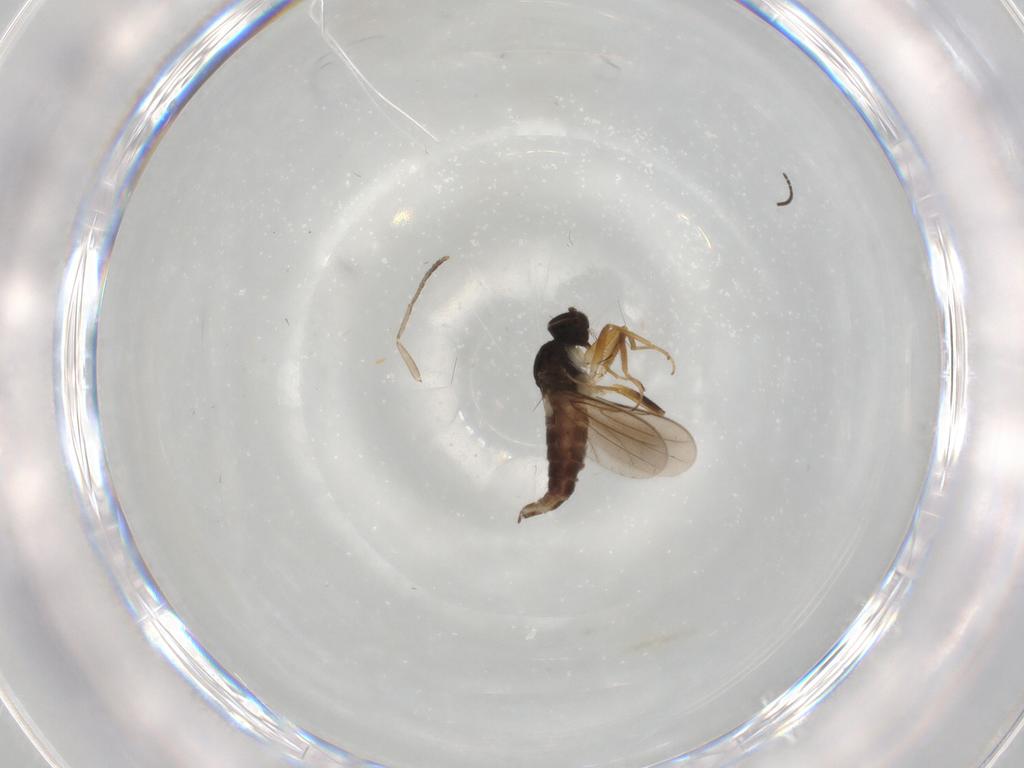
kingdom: Animalia
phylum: Arthropoda
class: Insecta
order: Diptera
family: Hybotidae
